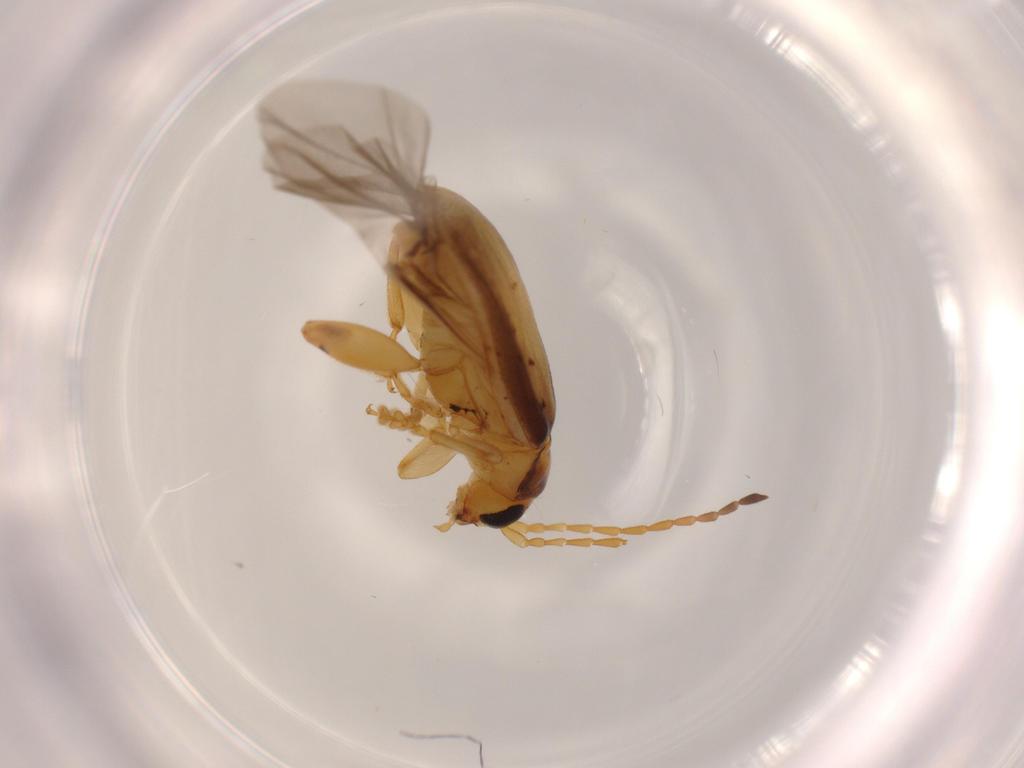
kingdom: Animalia
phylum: Arthropoda
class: Insecta
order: Coleoptera
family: Chrysomelidae
